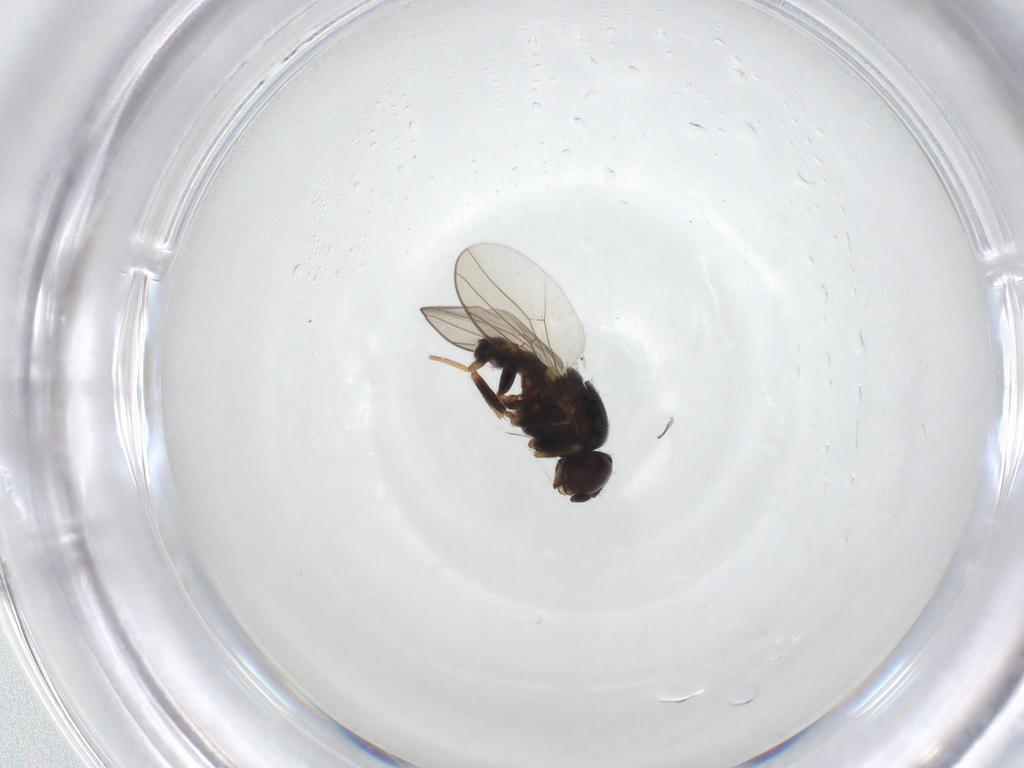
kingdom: Animalia
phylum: Arthropoda
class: Insecta
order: Diptera
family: Chloropidae
